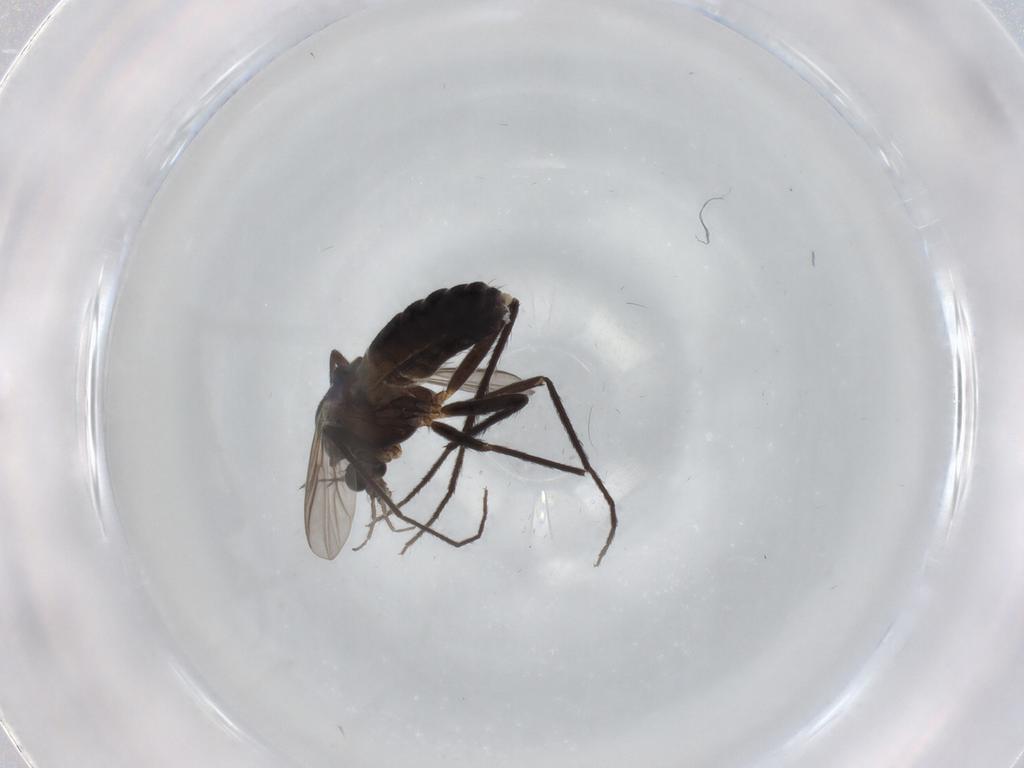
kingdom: Animalia
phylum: Arthropoda
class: Insecta
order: Diptera
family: Chironomidae
